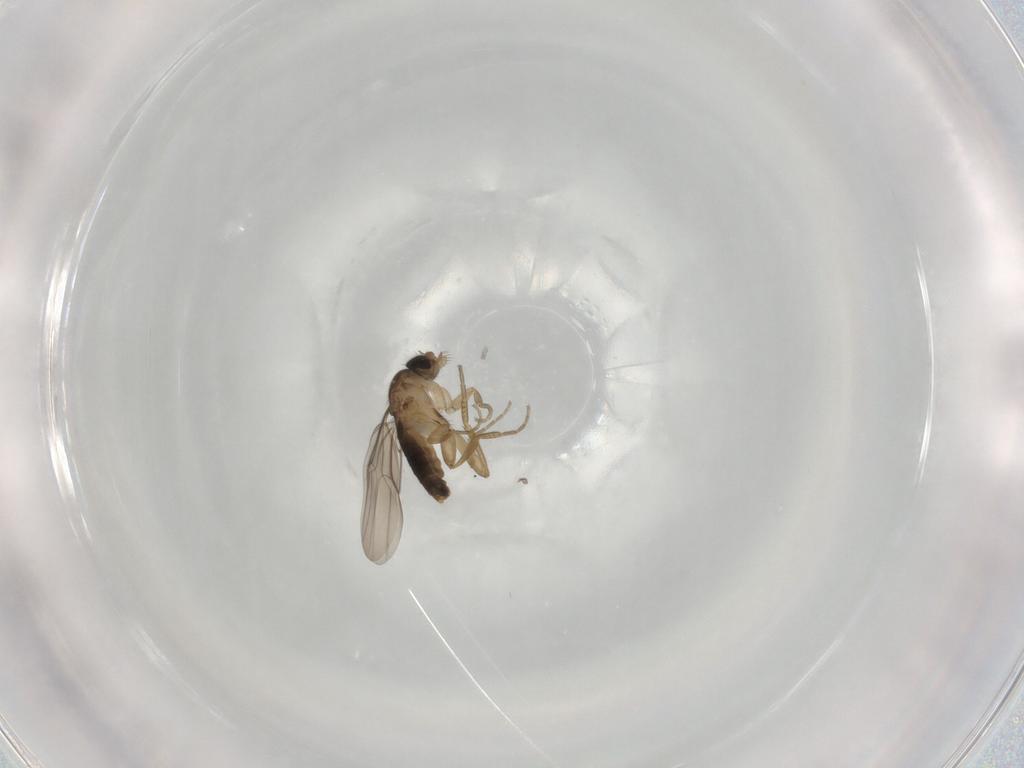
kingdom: Animalia
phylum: Arthropoda
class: Insecta
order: Diptera
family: Phoridae
